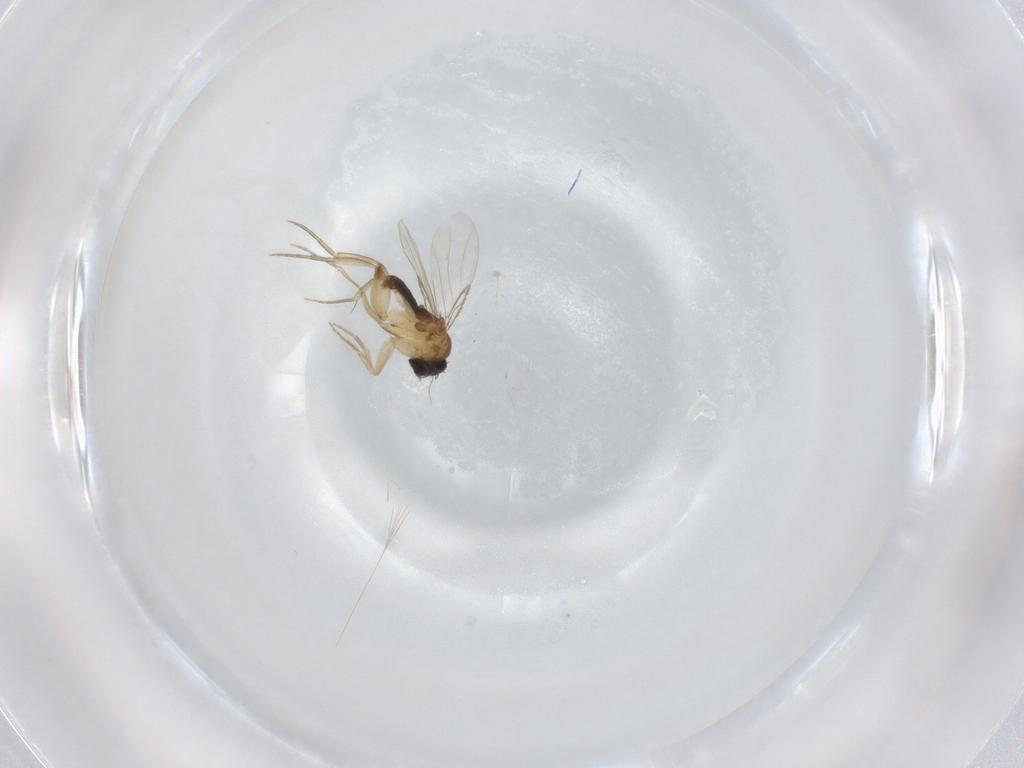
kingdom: Animalia
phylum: Arthropoda
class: Insecta
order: Diptera
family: Phoridae
